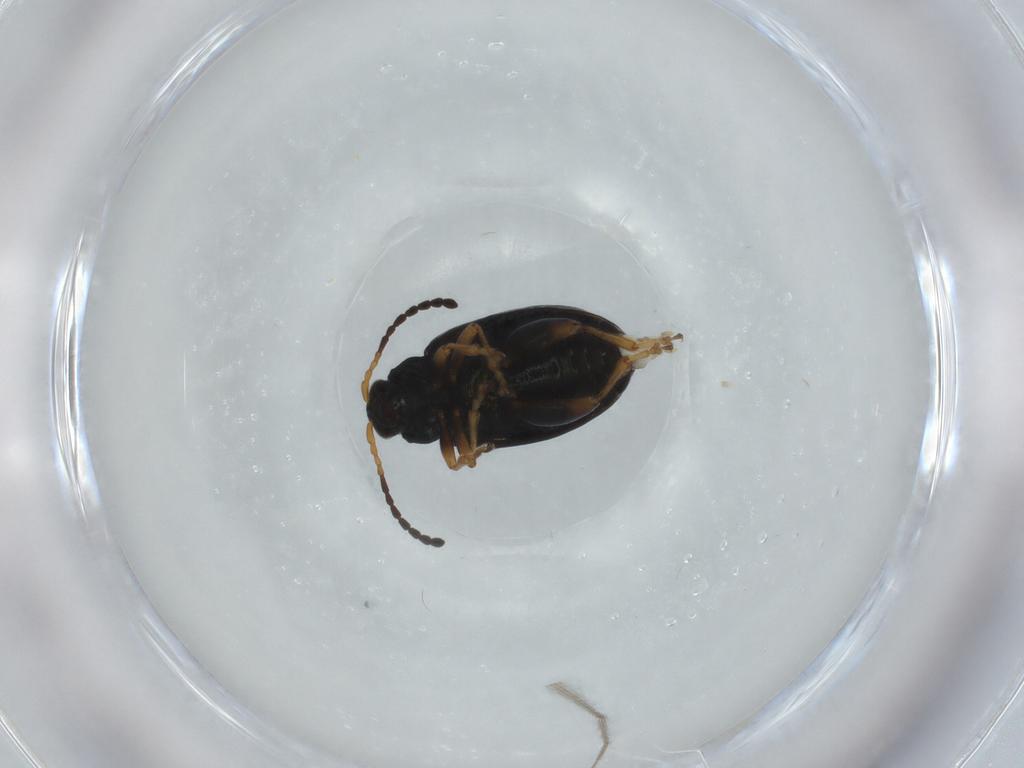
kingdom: Animalia
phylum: Arthropoda
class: Insecta
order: Coleoptera
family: Chrysomelidae
